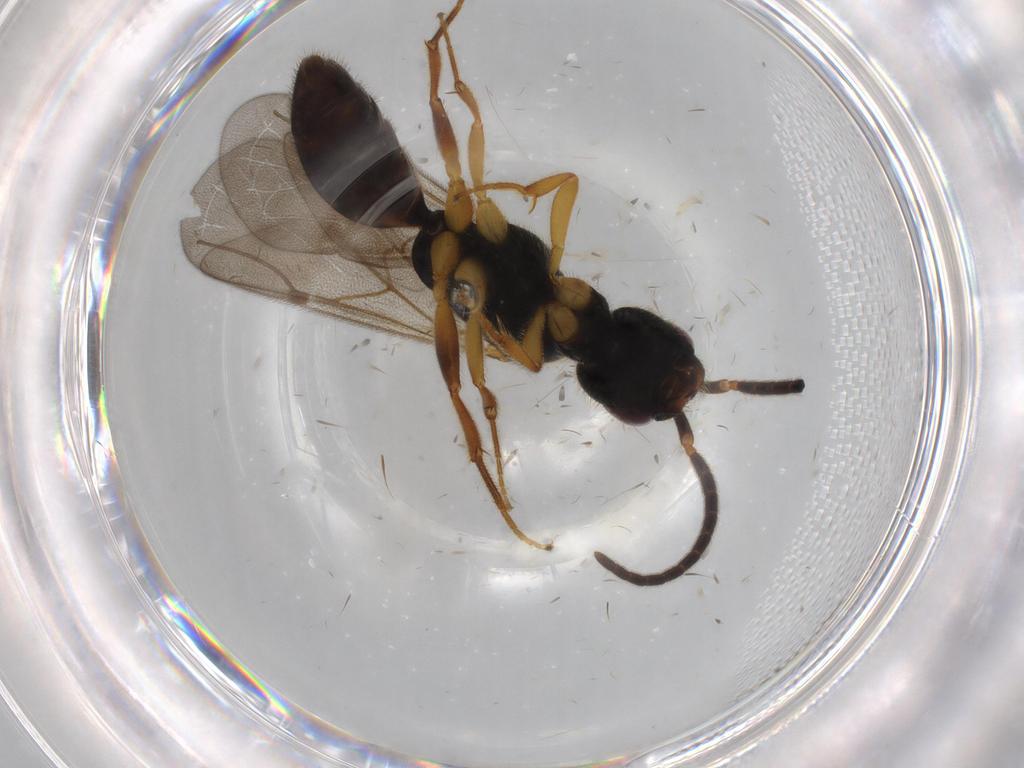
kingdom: Animalia
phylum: Arthropoda
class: Insecta
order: Hymenoptera
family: Bethylidae
